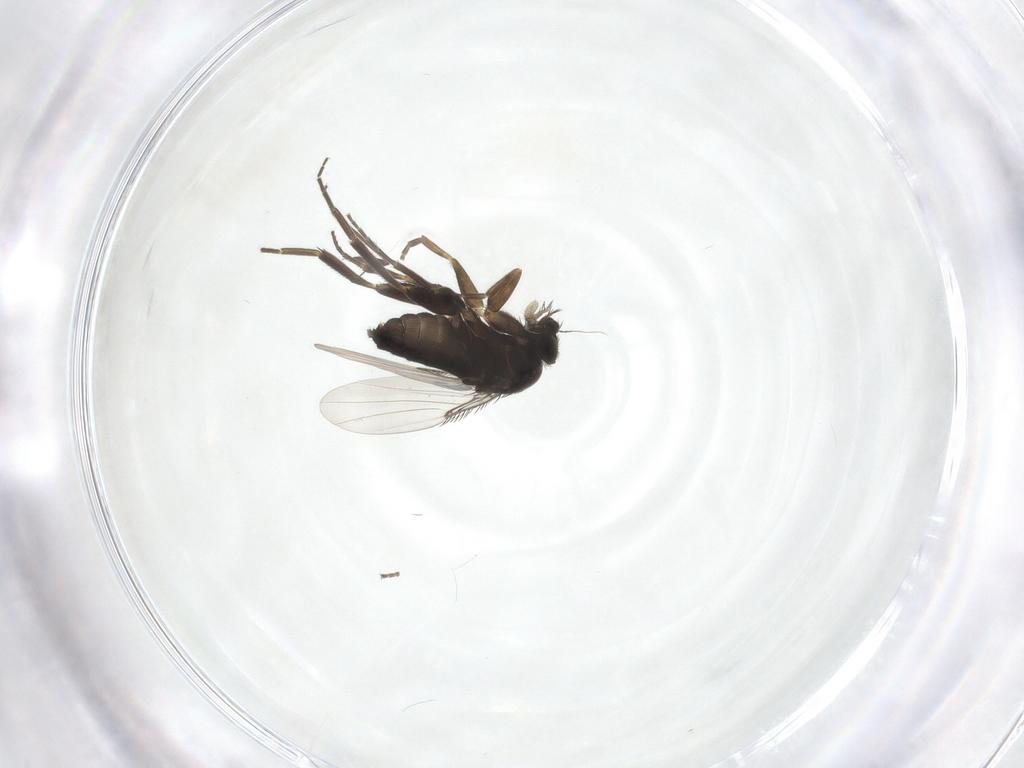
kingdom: Animalia
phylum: Arthropoda
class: Insecta
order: Diptera
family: Phoridae
